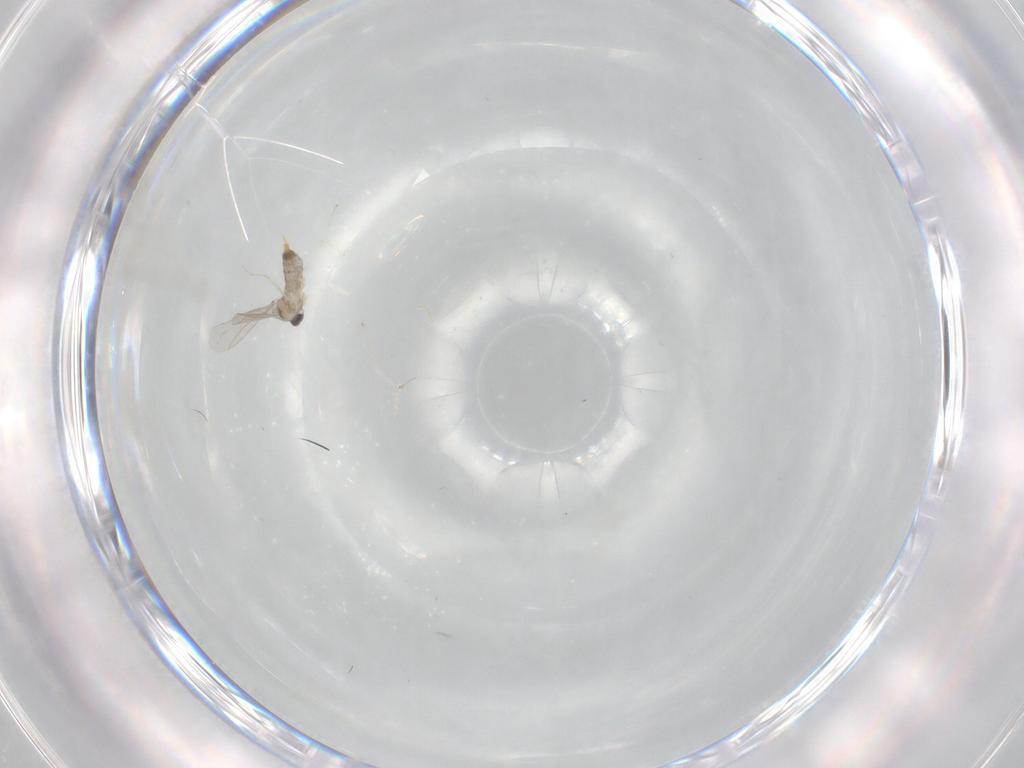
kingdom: Animalia
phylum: Arthropoda
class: Insecta
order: Diptera
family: Cecidomyiidae
